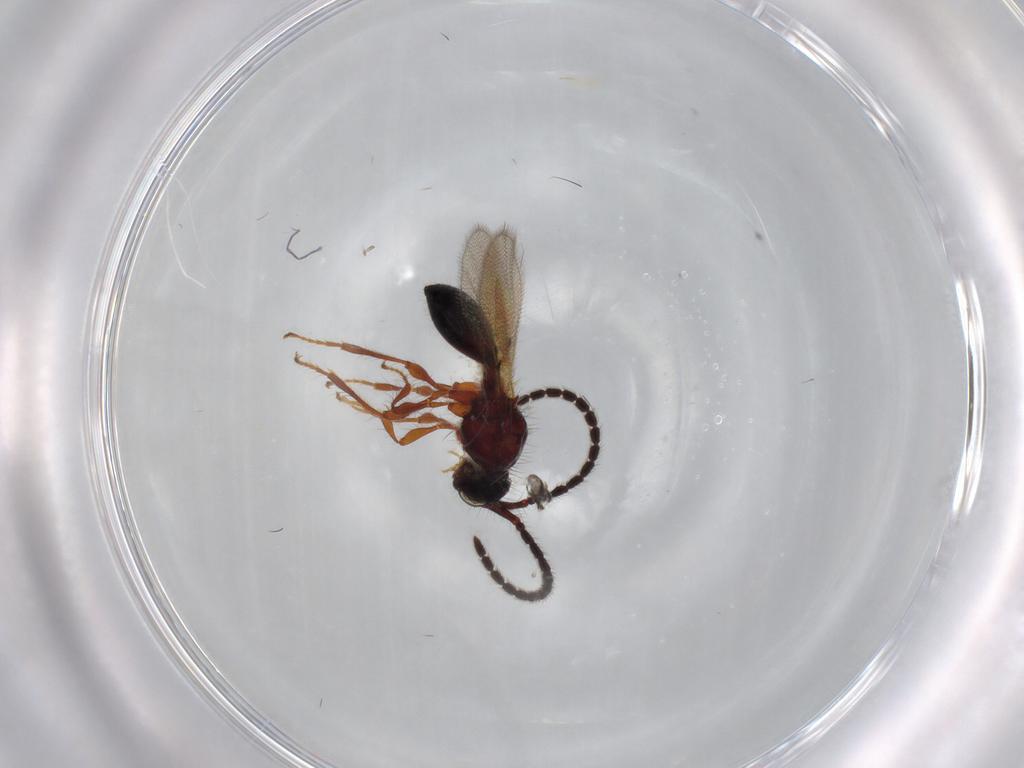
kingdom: Animalia
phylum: Arthropoda
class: Insecta
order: Hymenoptera
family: Diapriidae
